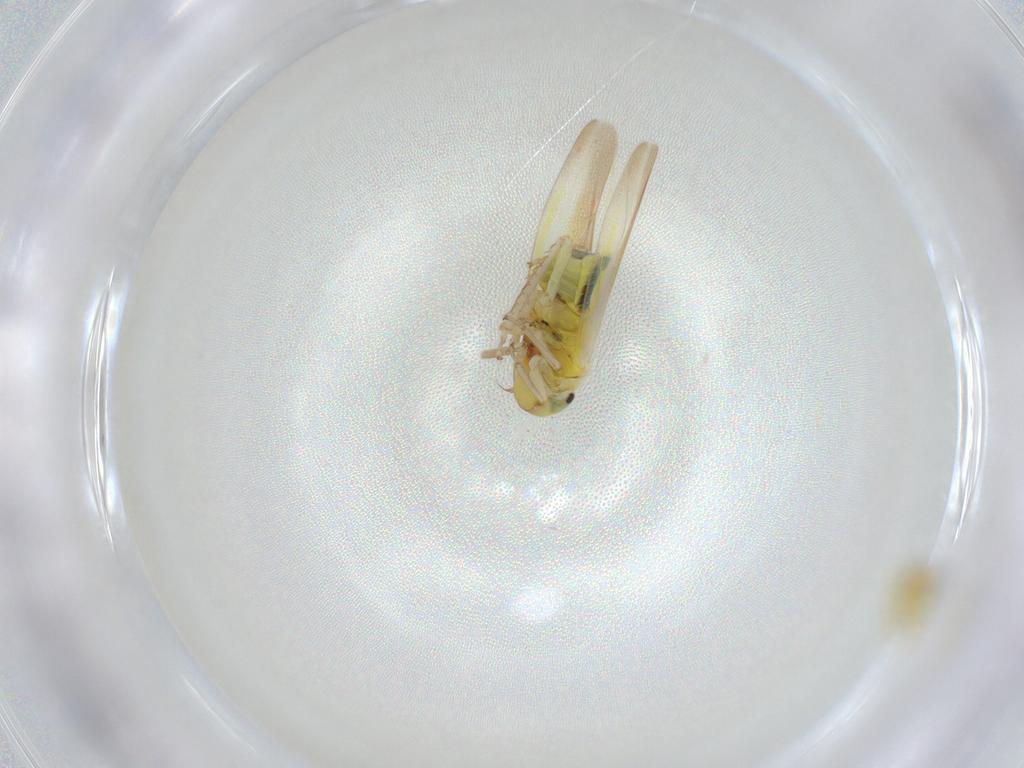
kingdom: Animalia
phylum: Arthropoda
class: Insecta
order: Hemiptera
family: Cicadellidae
